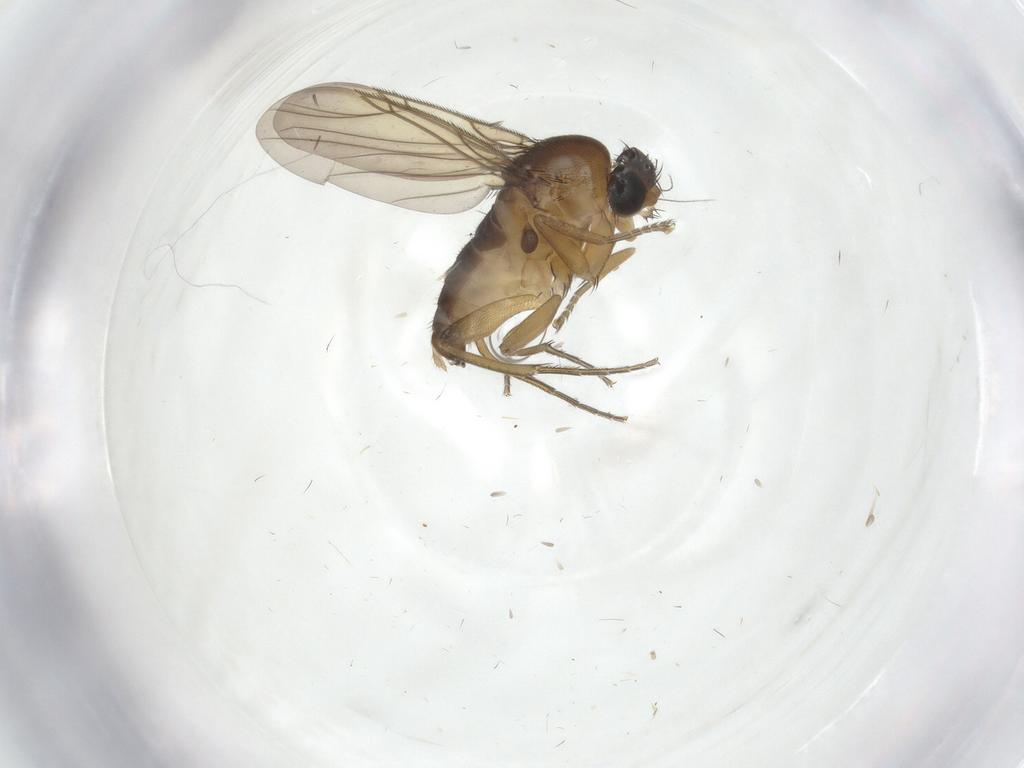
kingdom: Animalia
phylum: Arthropoda
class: Insecta
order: Diptera
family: Phoridae
